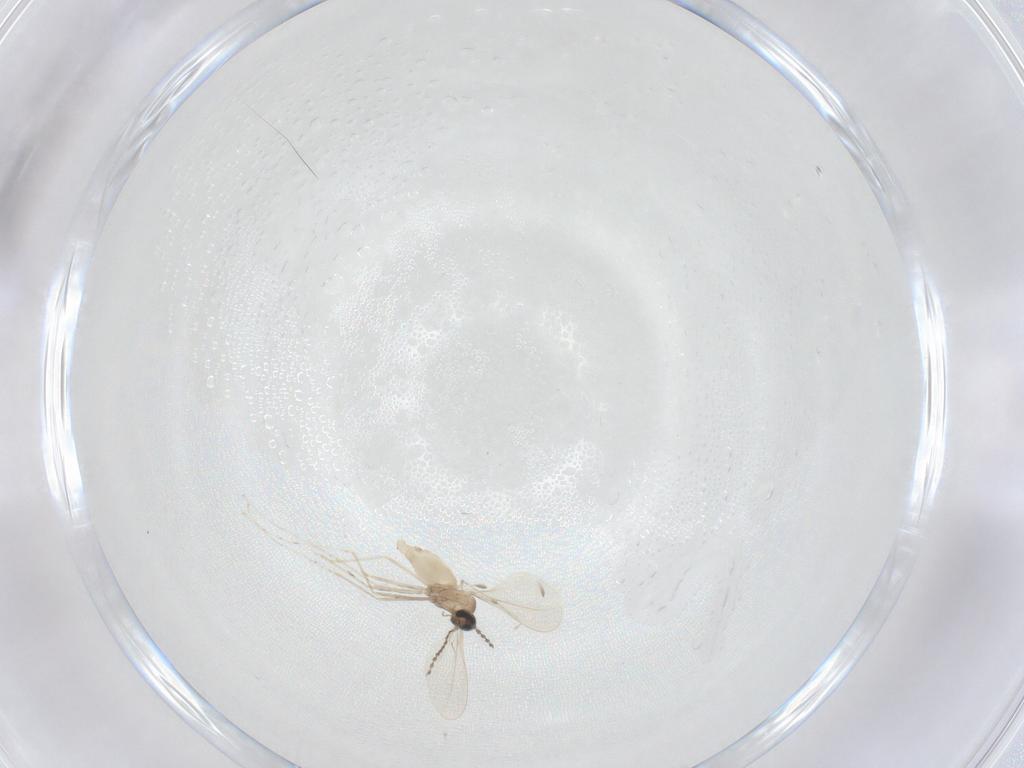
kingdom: Animalia
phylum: Arthropoda
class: Insecta
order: Diptera
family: Cecidomyiidae
